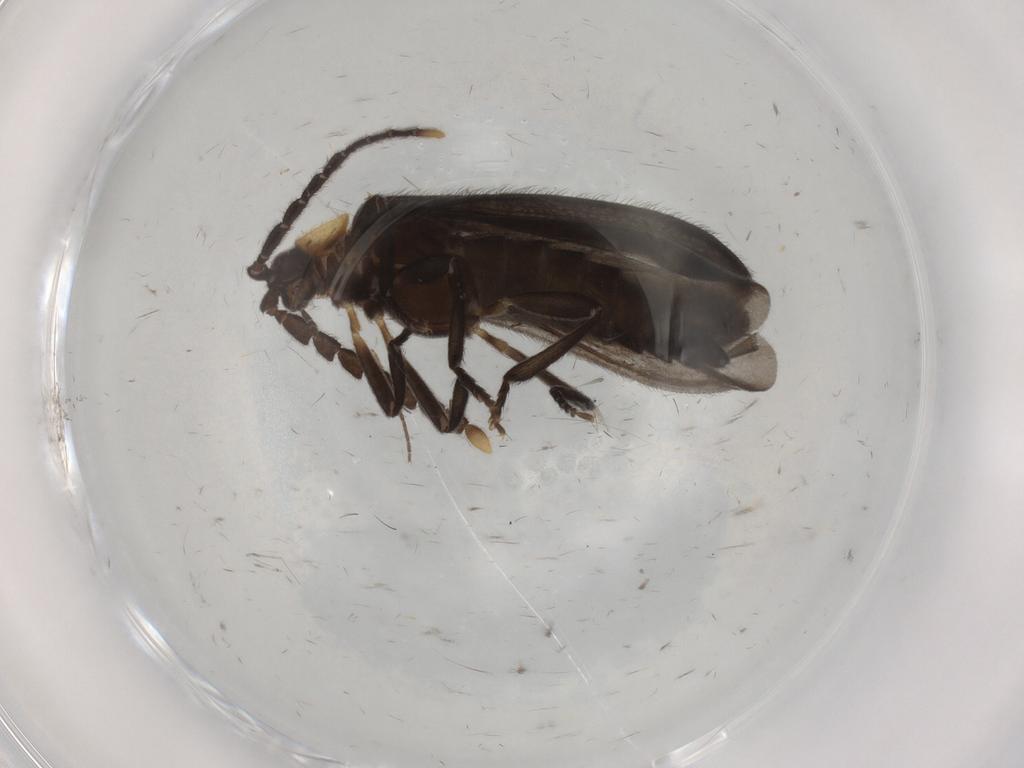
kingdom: Animalia
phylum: Arthropoda
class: Insecta
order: Coleoptera
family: Lycidae
